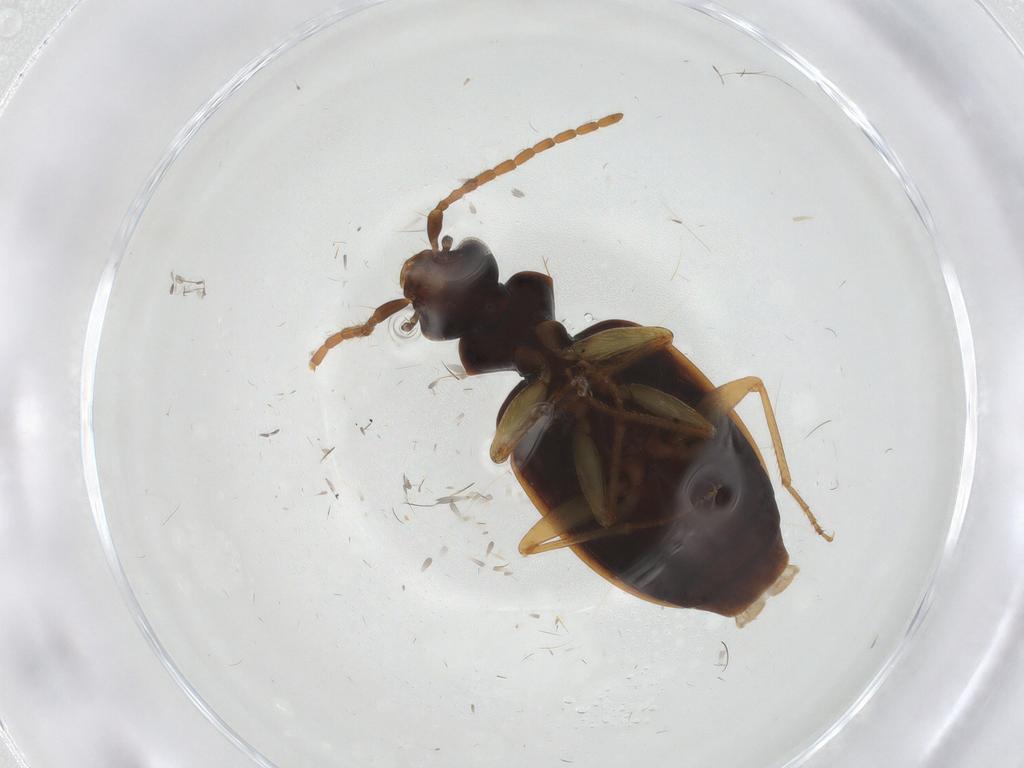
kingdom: Animalia
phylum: Arthropoda
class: Insecta
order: Coleoptera
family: Carabidae
